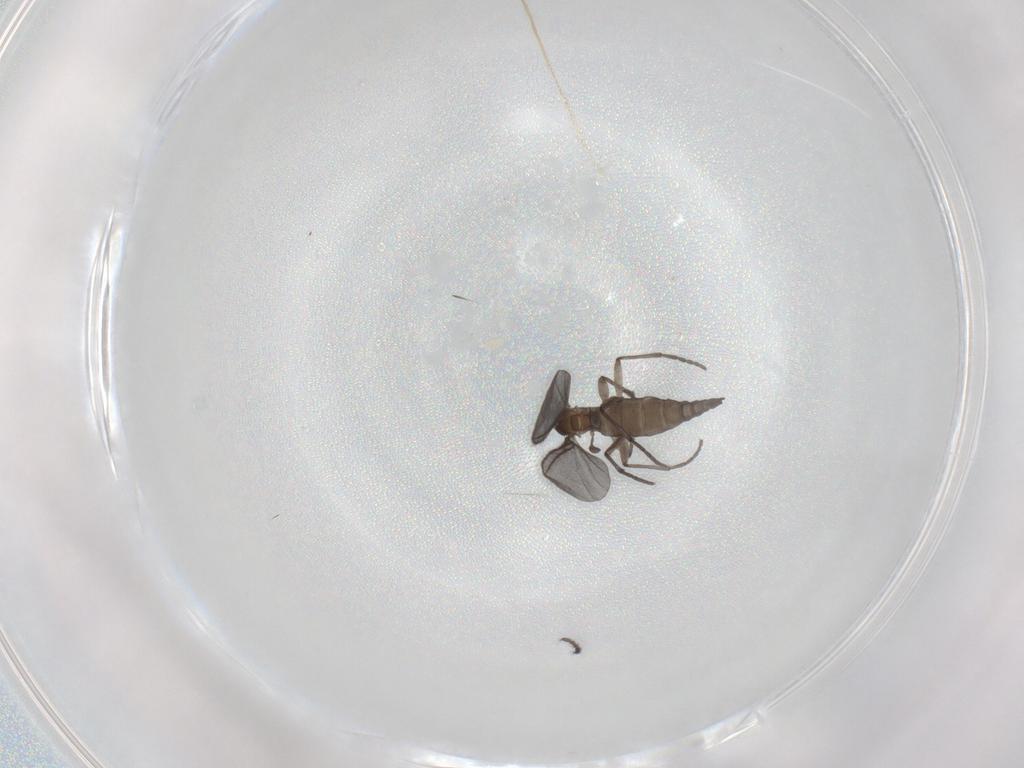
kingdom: Animalia
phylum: Arthropoda
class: Insecta
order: Diptera
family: Sciaridae
